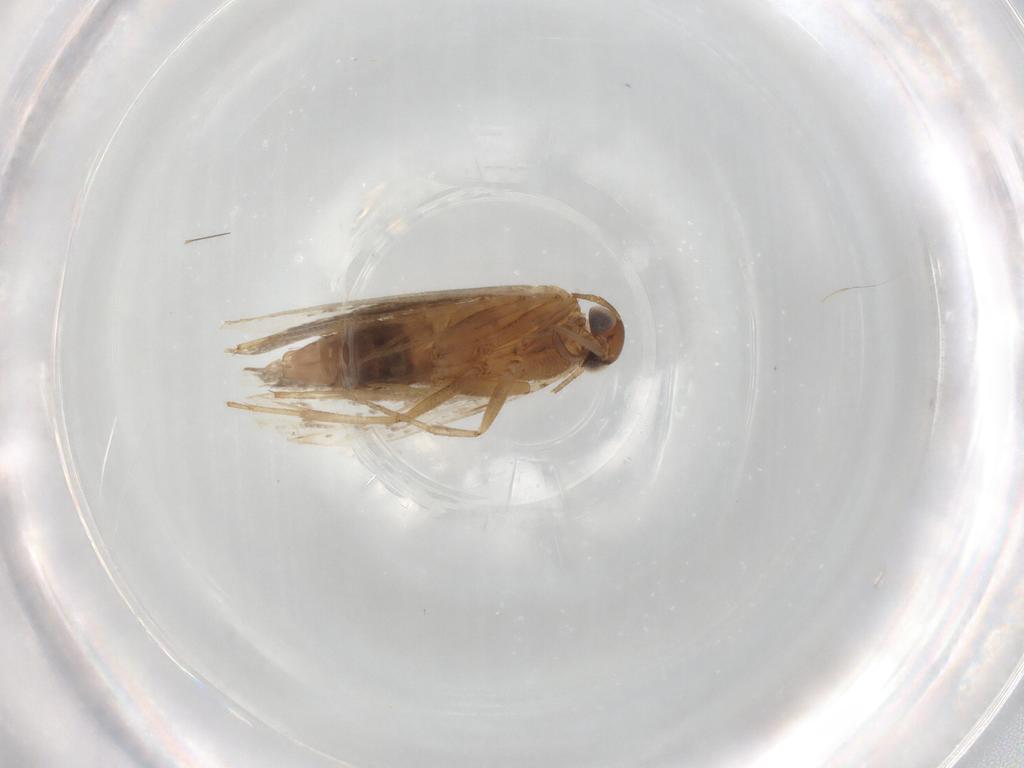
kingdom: Animalia
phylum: Arthropoda
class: Insecta
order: Lepidoptera
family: Gelechiidae
